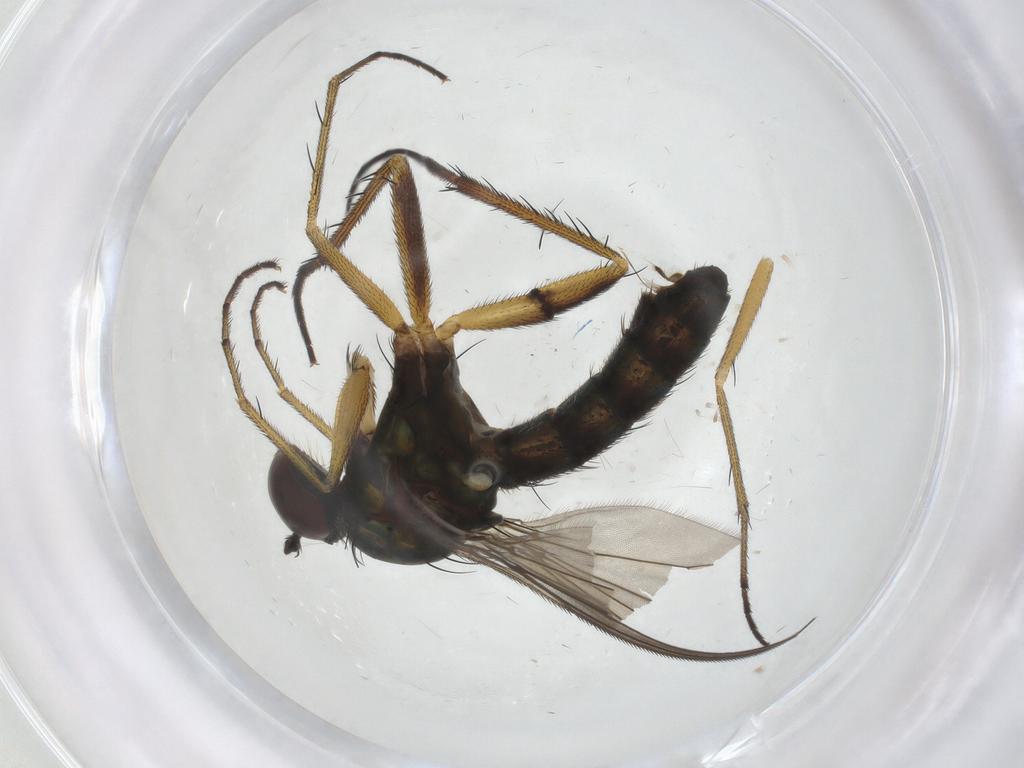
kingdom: Animalia
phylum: Arthropoda
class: Insecta
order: Diptera
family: Dolichopodidae
